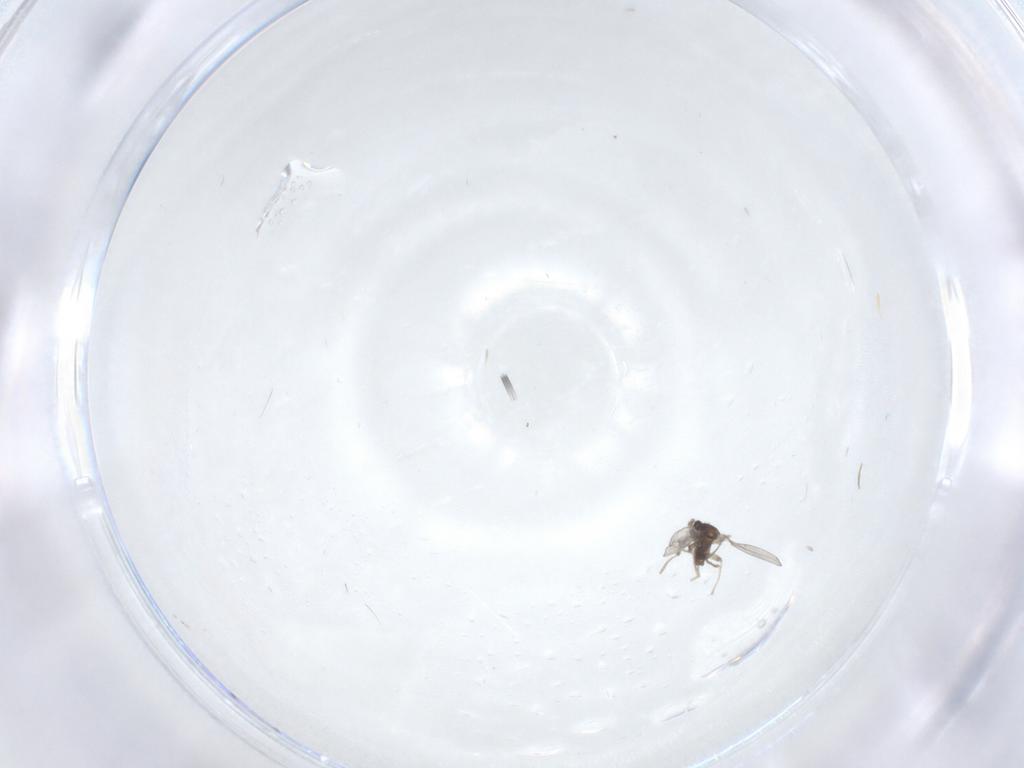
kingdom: Animalia
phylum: Arthropoda
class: Insecta
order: Diptera
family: Cecidomyiidae
